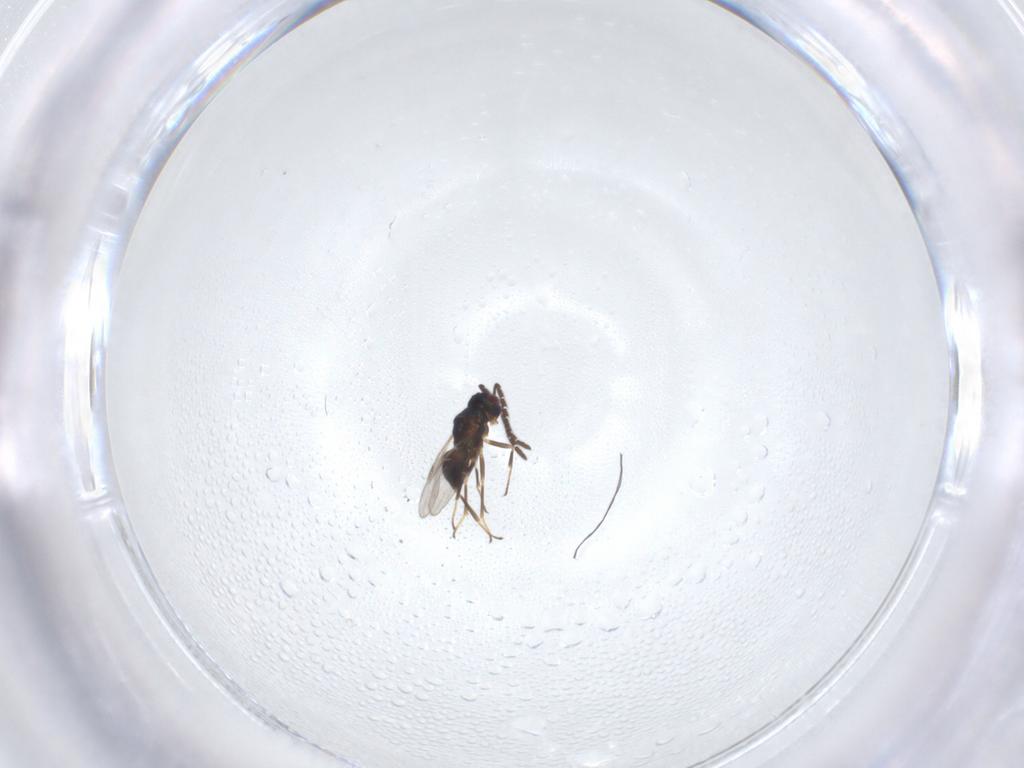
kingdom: Animalia
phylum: Arthropoda
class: Insecta
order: Hymenoptera
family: Encyrtidae
